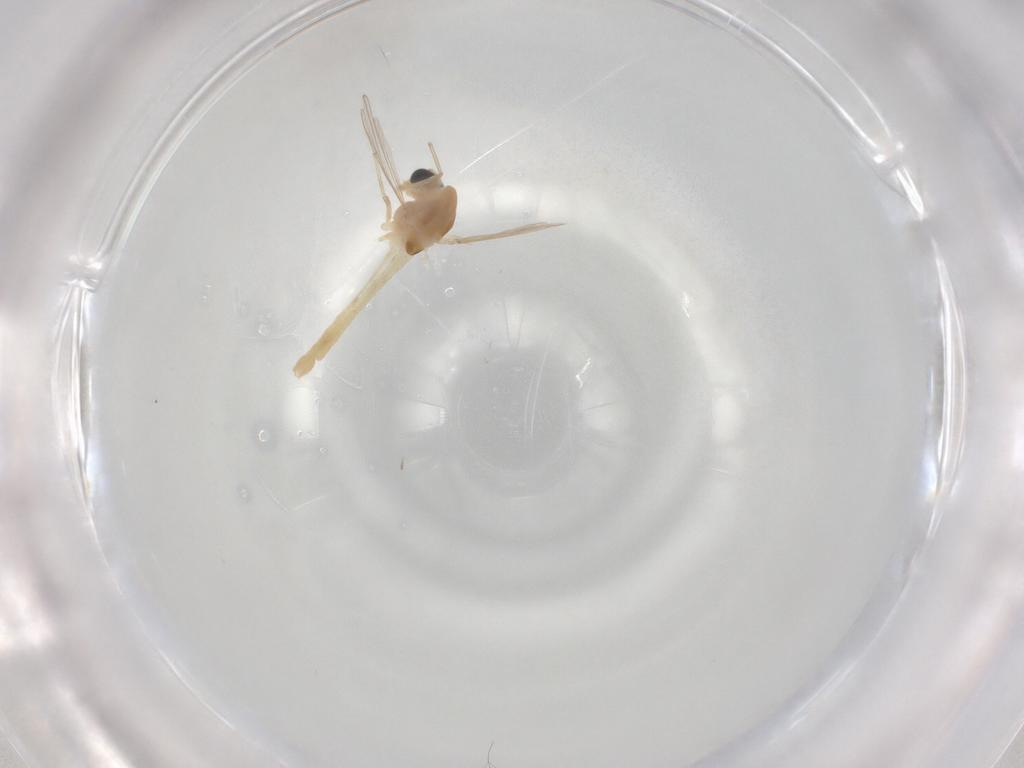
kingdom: Animalia
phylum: Arthropoda
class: Insecta
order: Diptera
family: Chironomidae
